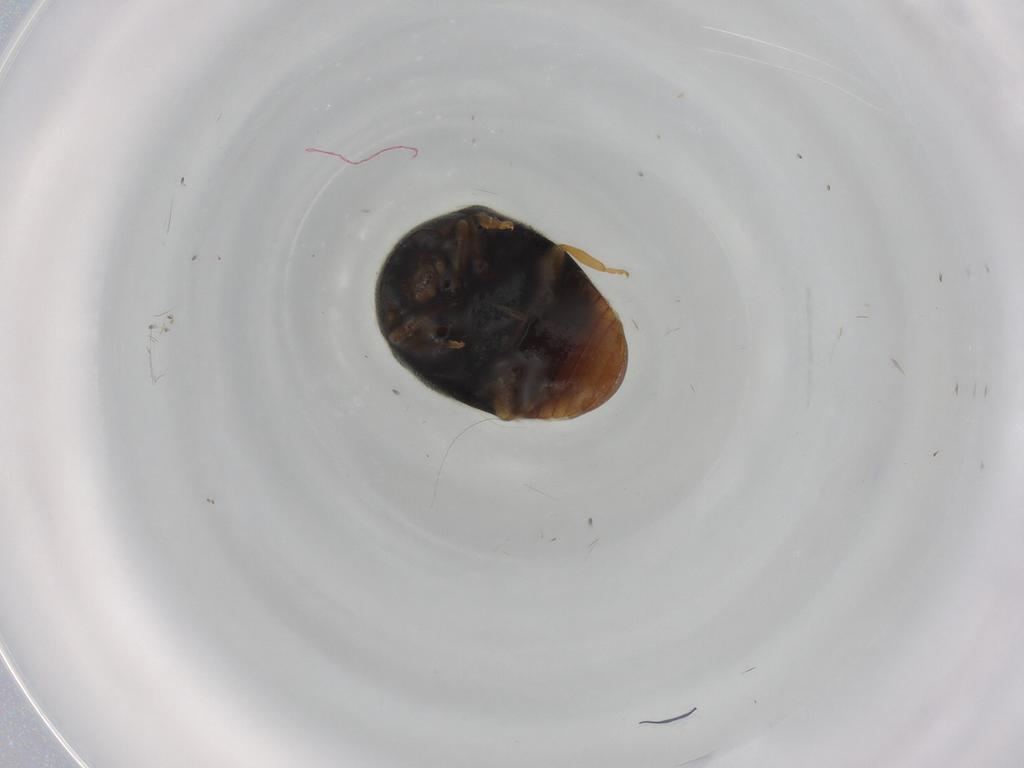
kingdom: Animalia
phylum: Arthropoda
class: Insecta
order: Coleoptera
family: Coccinellidae
